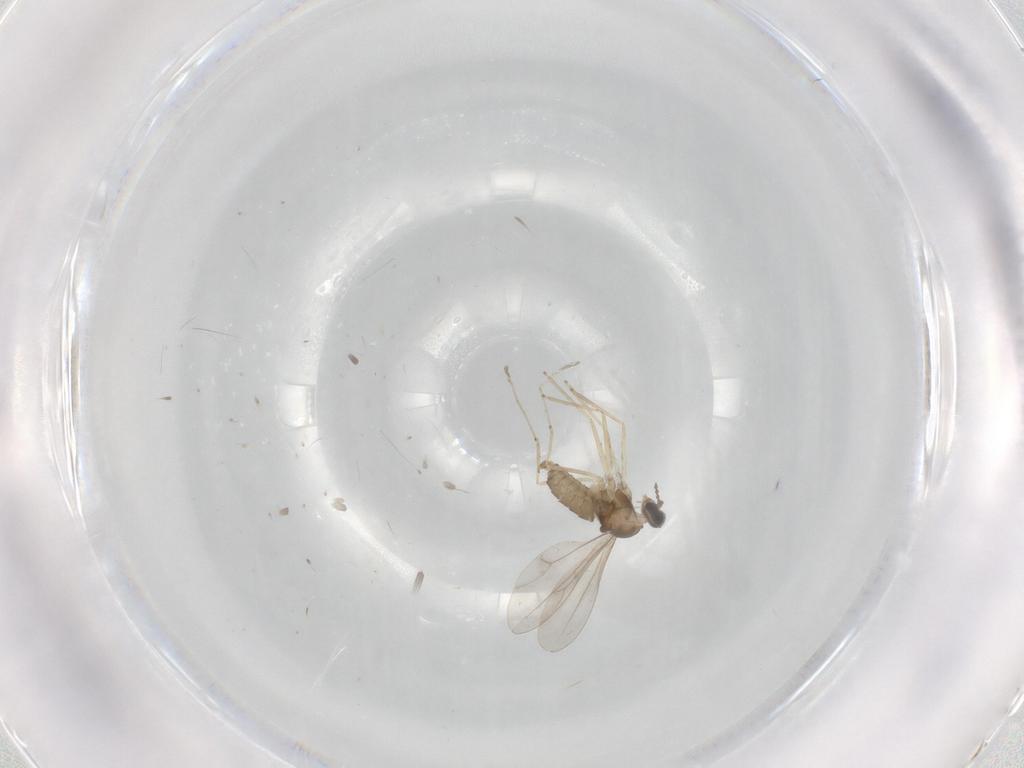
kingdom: Animalia
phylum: Arthropoda
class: Insecta
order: Diptera
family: Cecidomyiidae
